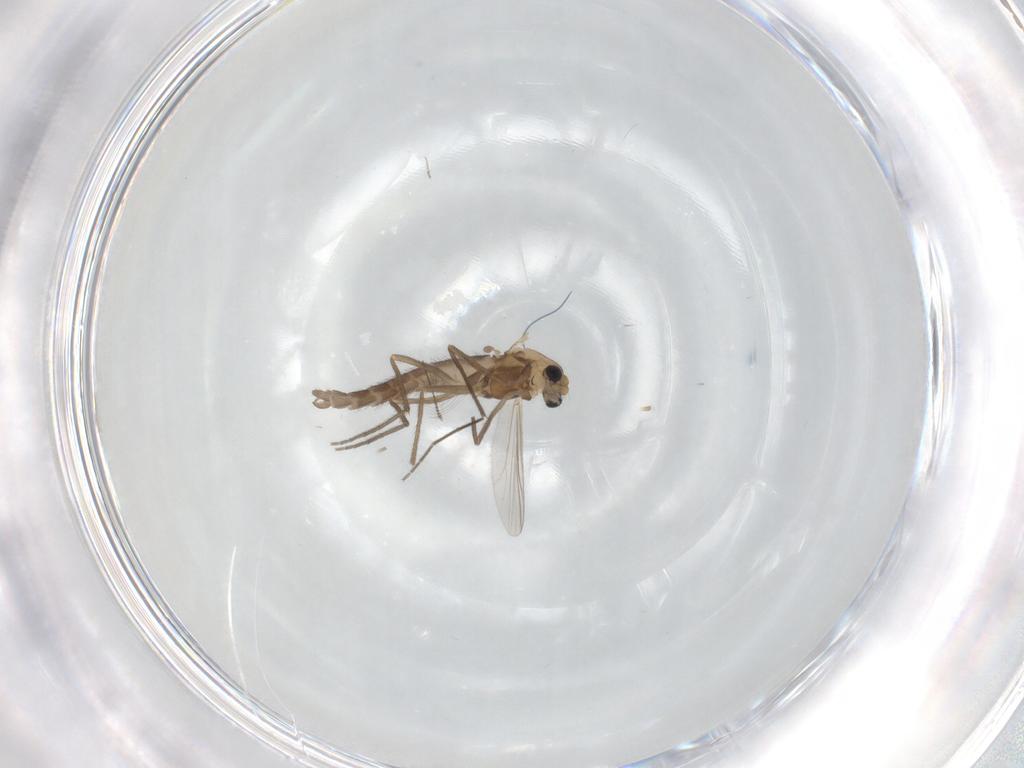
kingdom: Animalia
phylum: Arthropoda
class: Insecta
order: Diptera
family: Chironomidae
